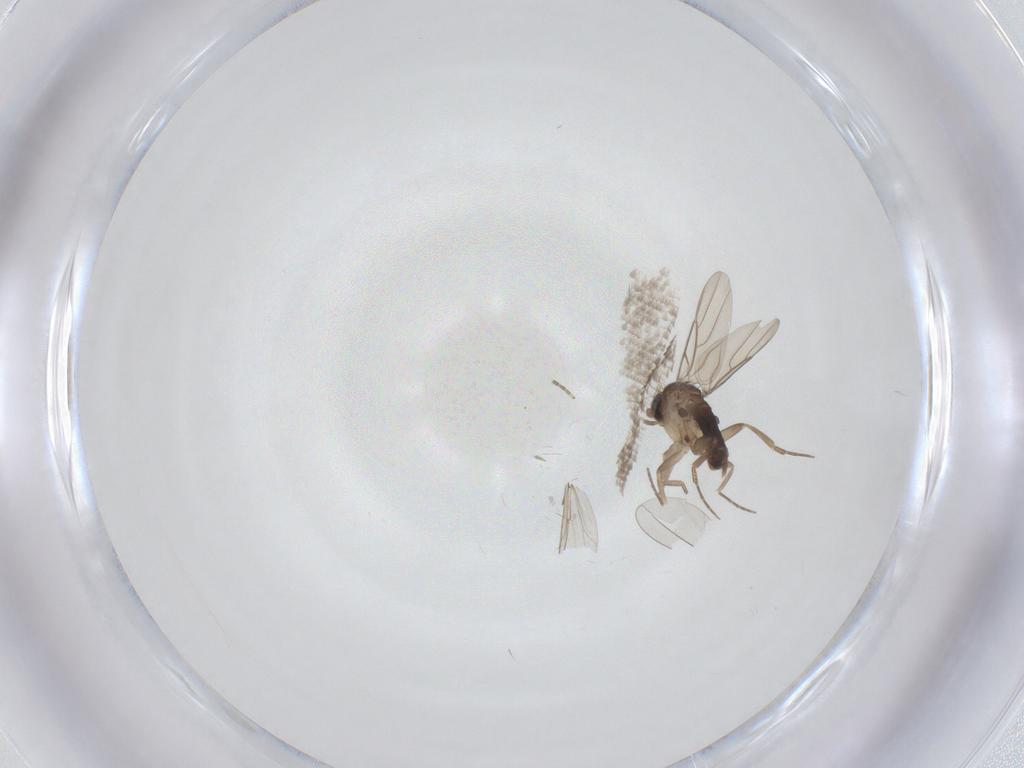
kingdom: Animalia
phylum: Arthropoda
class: Insecta
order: Diptera
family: Phoridae
